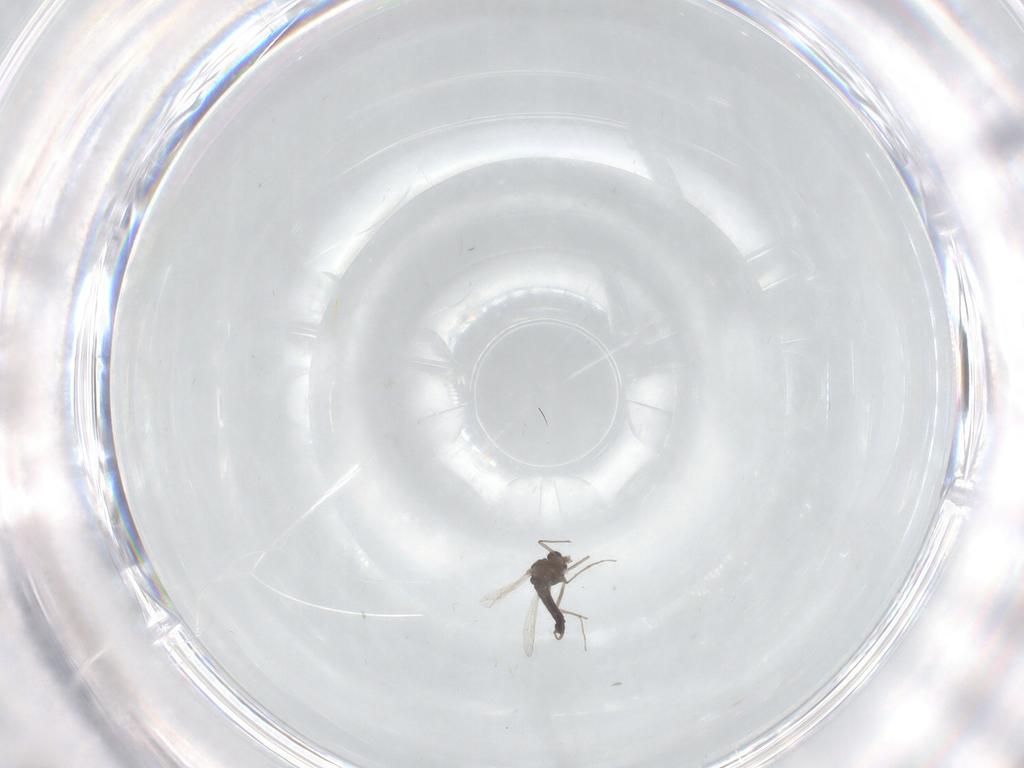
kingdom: Animalia
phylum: Arthropoda
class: Insecta
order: Diptera
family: Chironomidae
